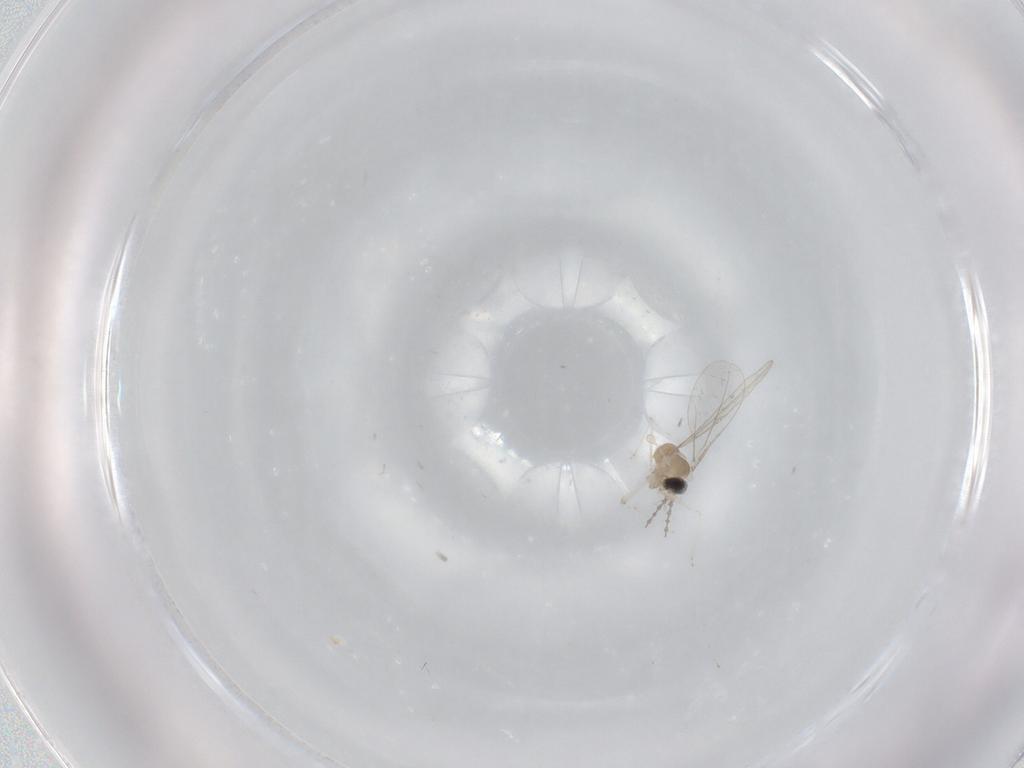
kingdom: Animalia
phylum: Arthropoda
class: Insecta
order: Diptera
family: Cecidomyiidae
